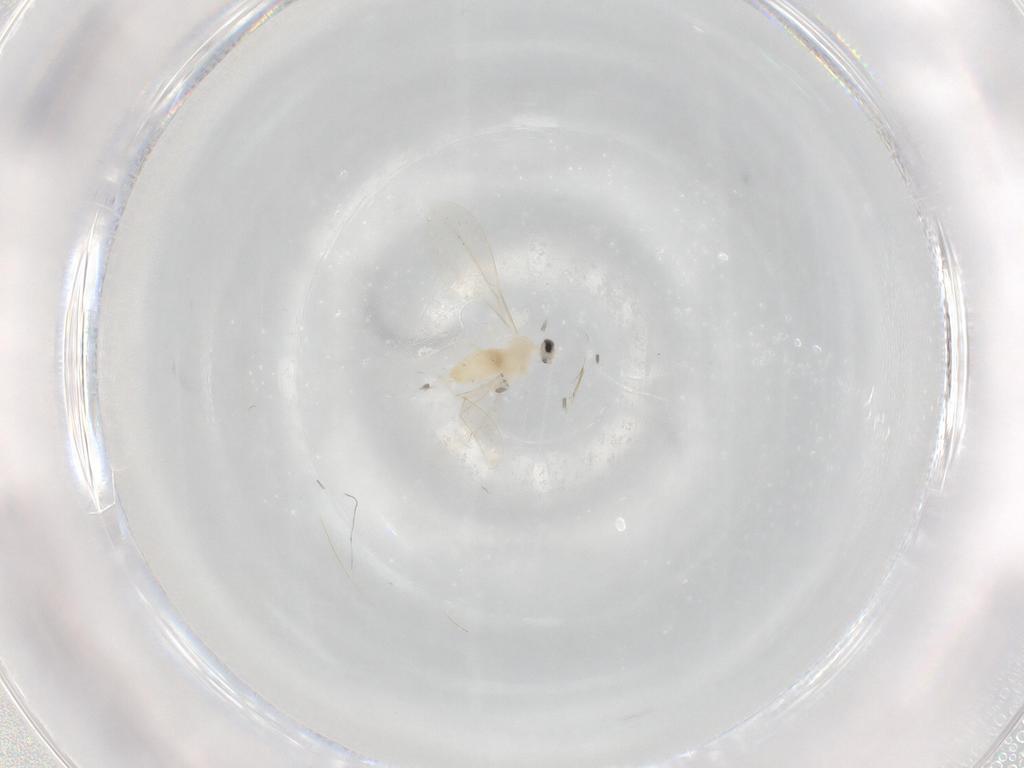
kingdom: Animalia
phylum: Arthropoda
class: Insecta
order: Diptera
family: Cecidomyiidae
